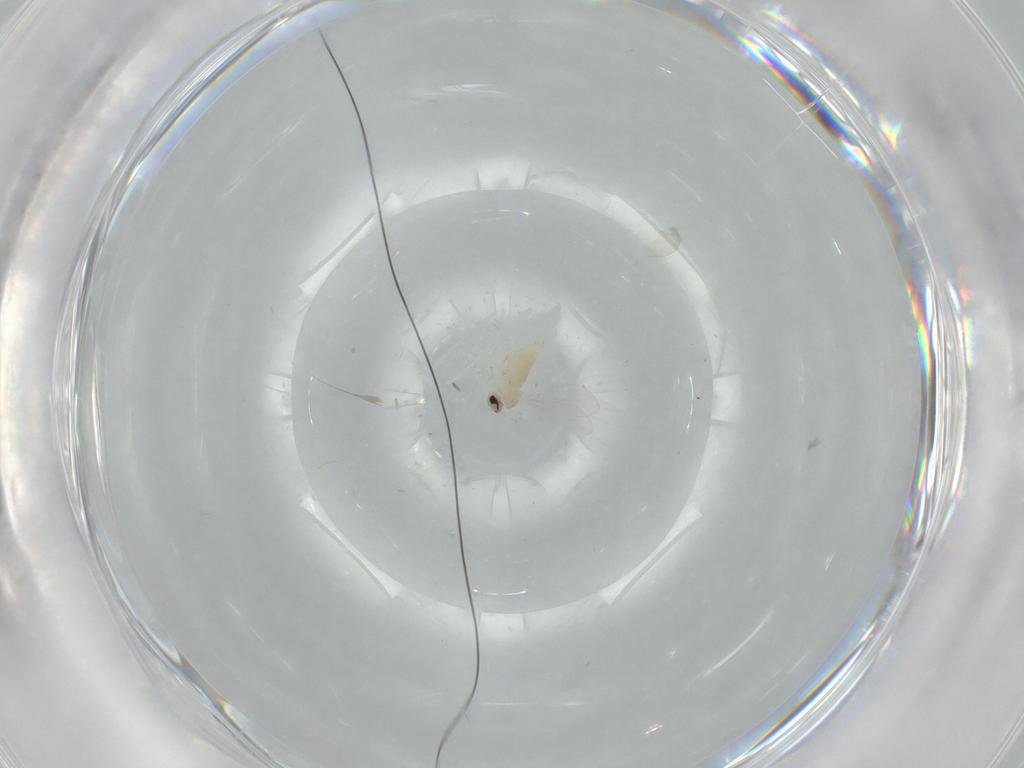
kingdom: Animalia
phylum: Arthropoda
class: Insecta
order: Diptera
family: Cecidomyiidae
